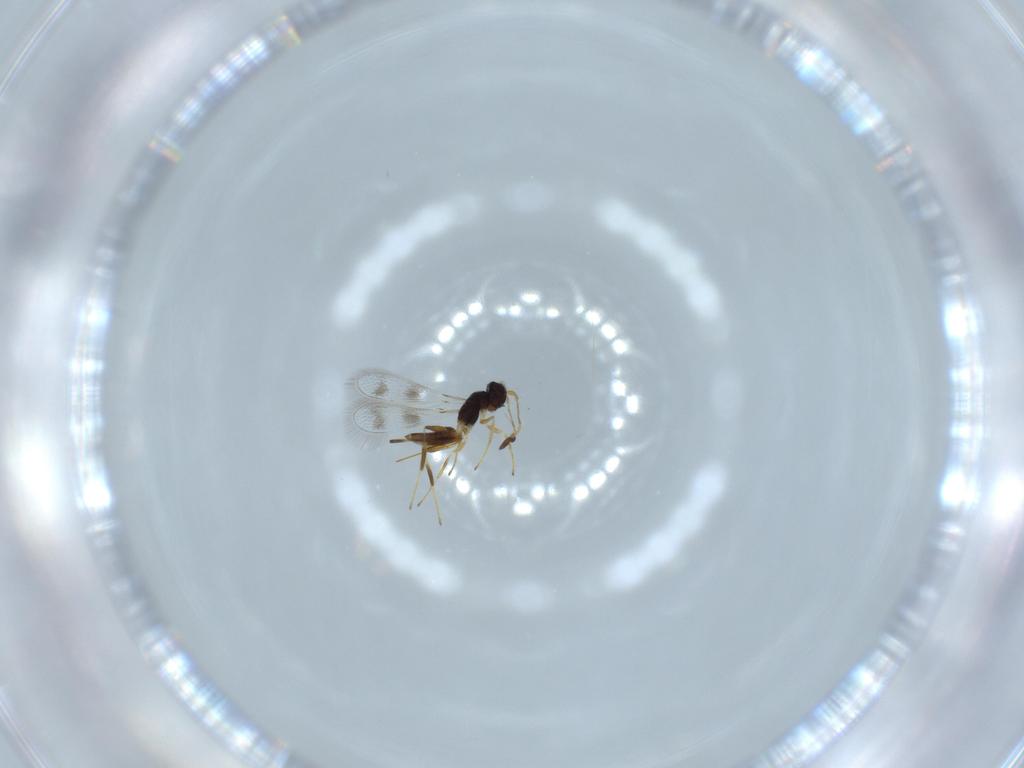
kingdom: Animalia
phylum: Arthropoda
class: Insecta
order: Hymenoptera
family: Mymaridae
